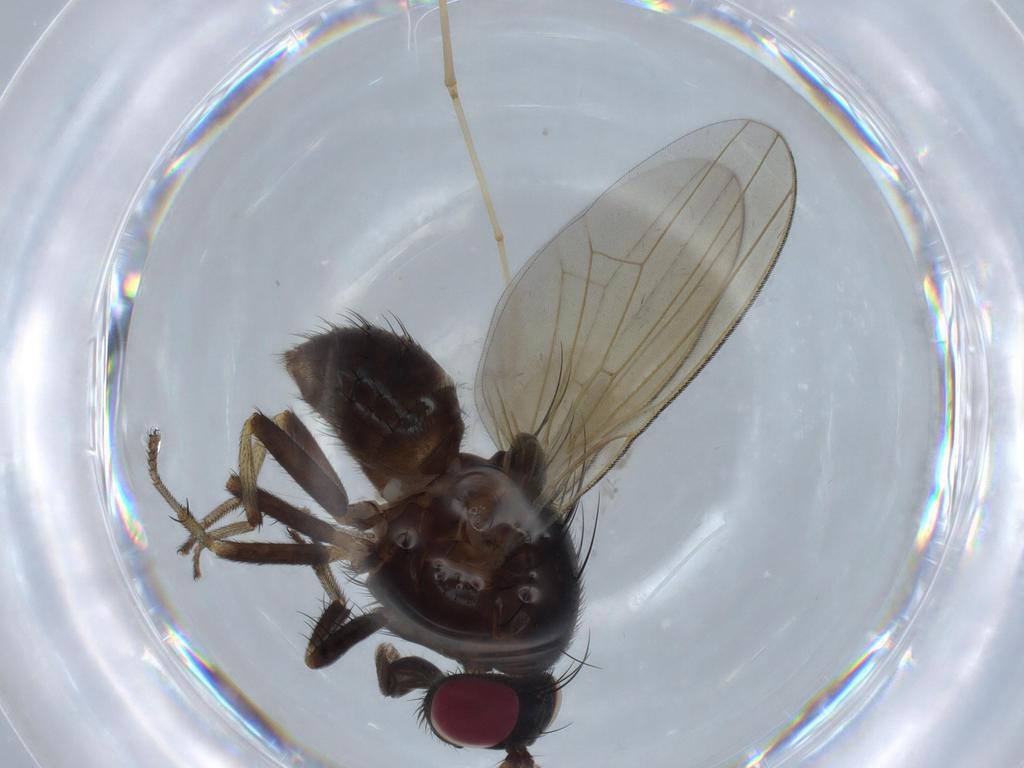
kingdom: Animalia
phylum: Arthropoda
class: Insecta
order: Diptera
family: Cecidomyiidae
